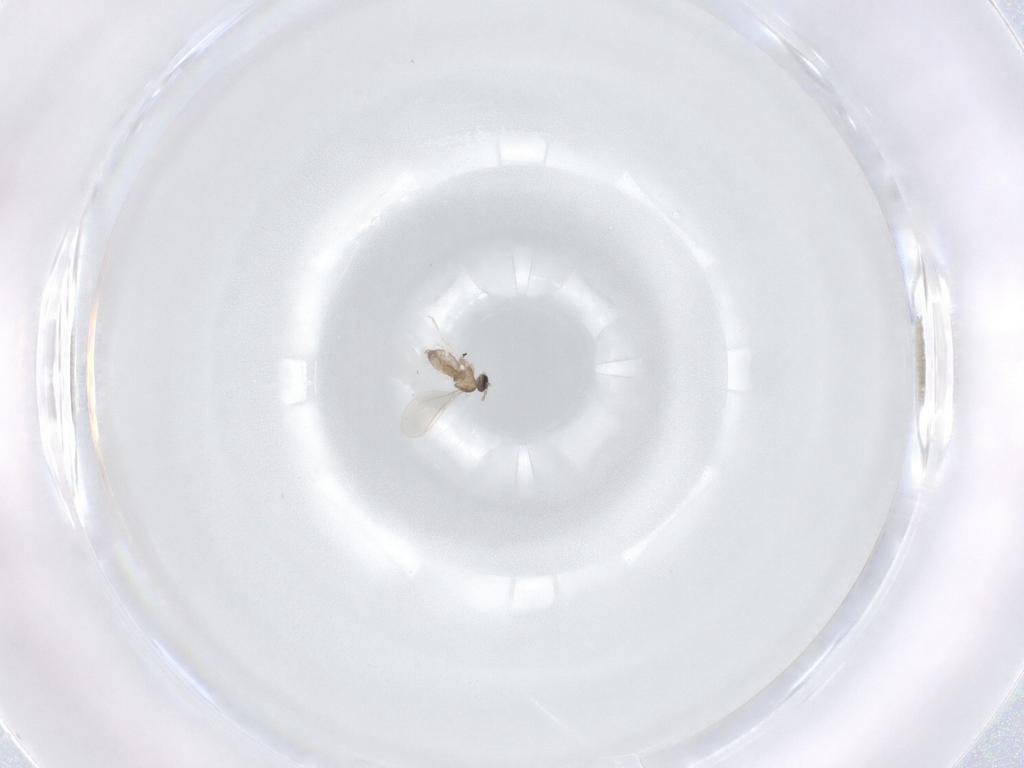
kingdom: Animalia
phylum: Arthropoda
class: Insecta
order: Diptera
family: Cecidomyiidae
